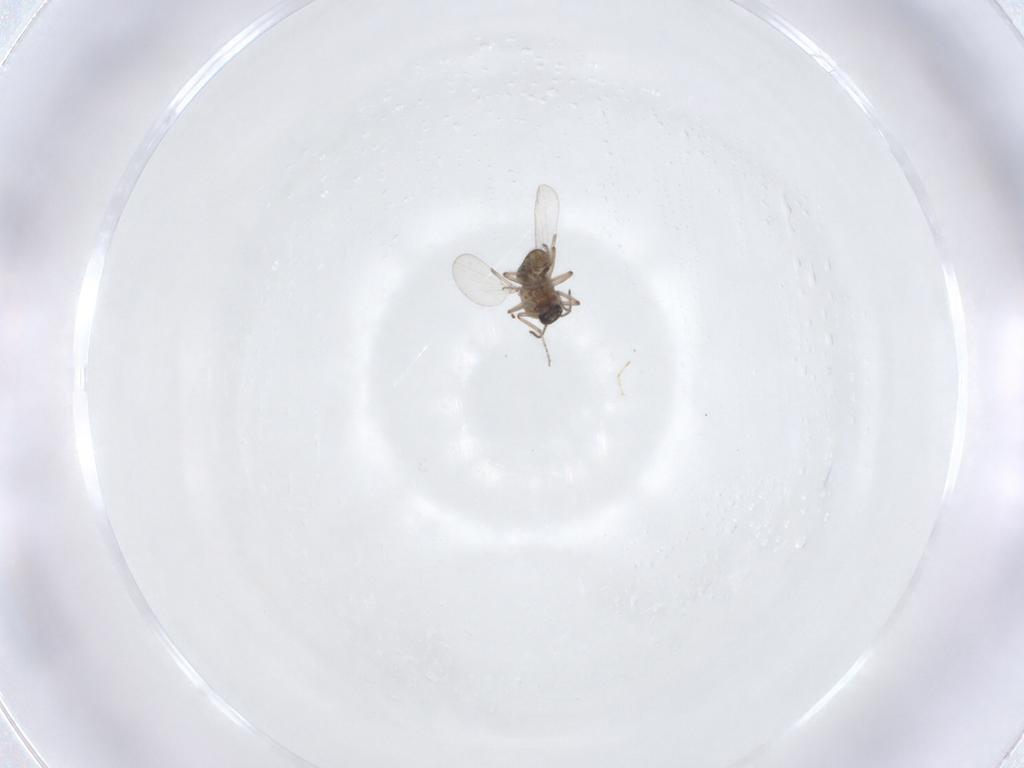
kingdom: Animalia
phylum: Arthropoda
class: Insecta
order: Diptera
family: Ceratopogonidae
